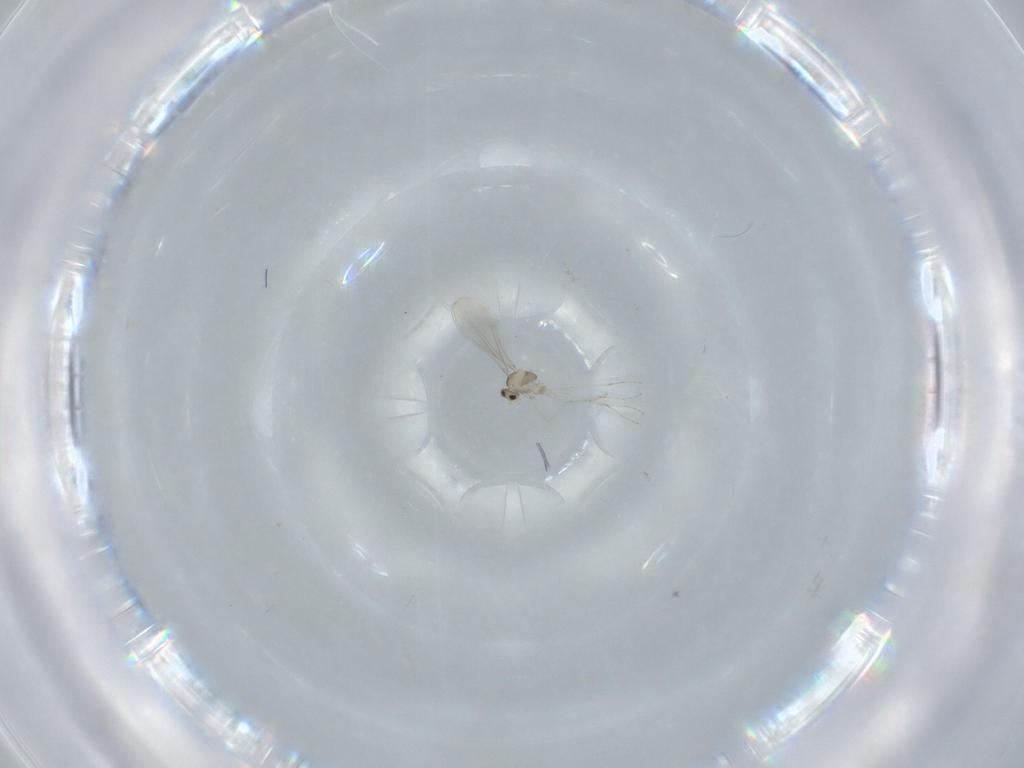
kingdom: Animalia
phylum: Arthropoda
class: Insecta
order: Diptera
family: Cecidomyiidae
